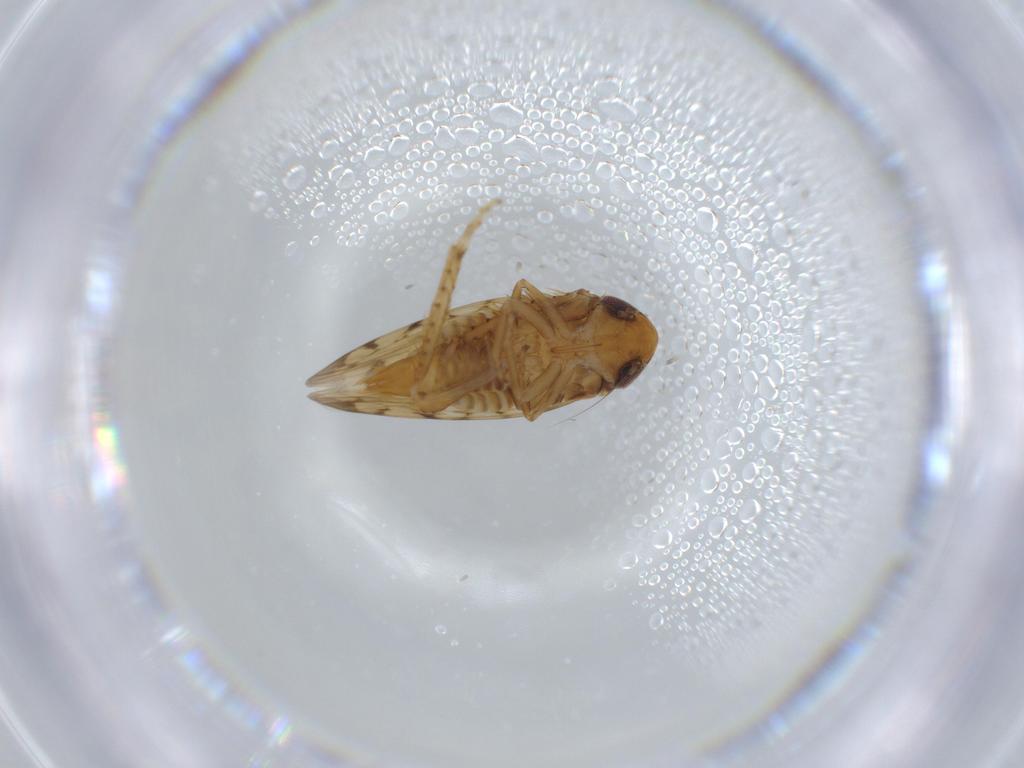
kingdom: Animalia
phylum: Arthropoda
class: Insecta
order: Hemiptera
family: Cicadellidae
